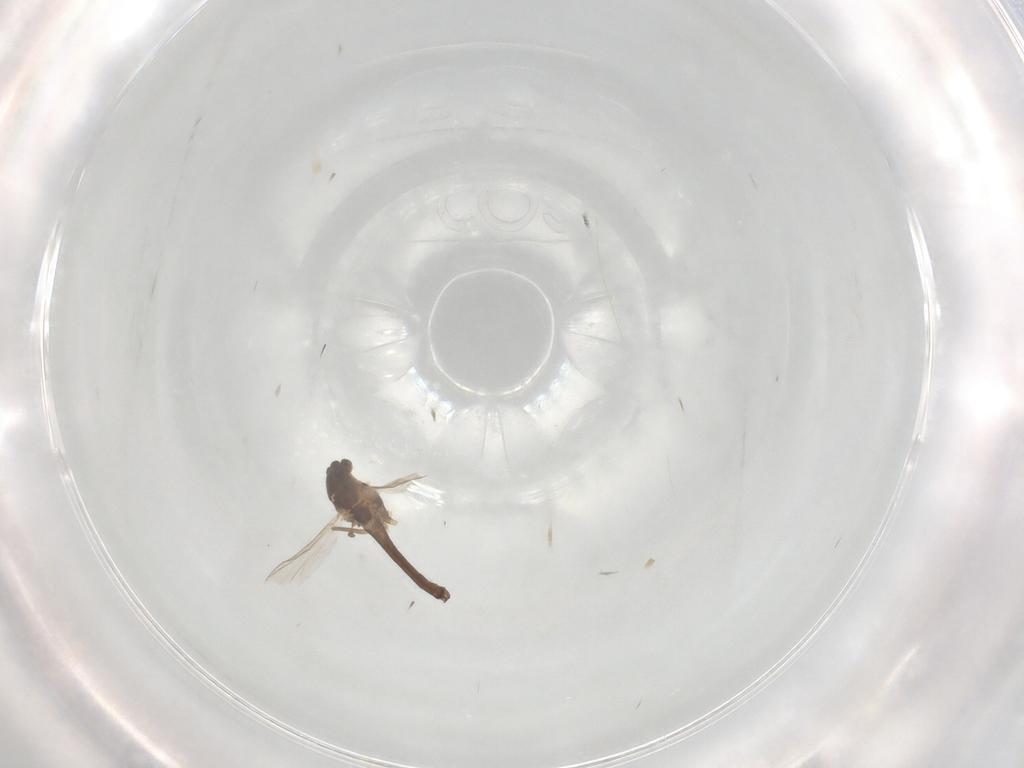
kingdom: Animalia
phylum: Arthropoda
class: Insecta
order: Diptera
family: Chironomidae
